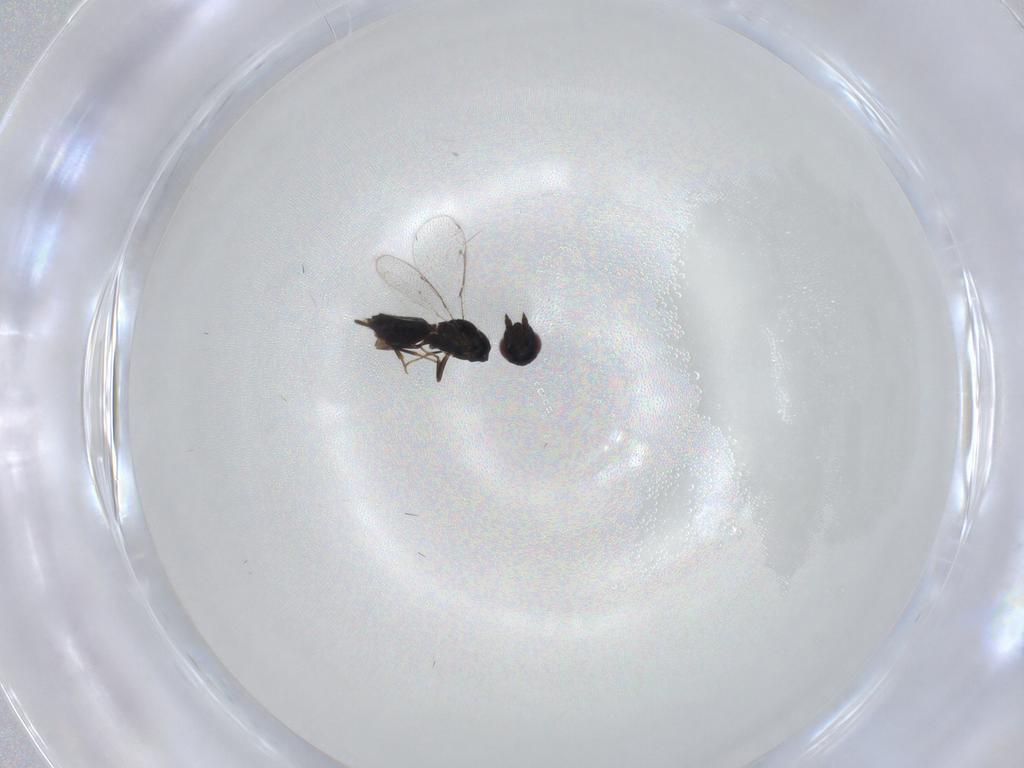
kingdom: Animalia
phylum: Arthropoda
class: Insecta
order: Hymenoptera
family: Pteromalidae
